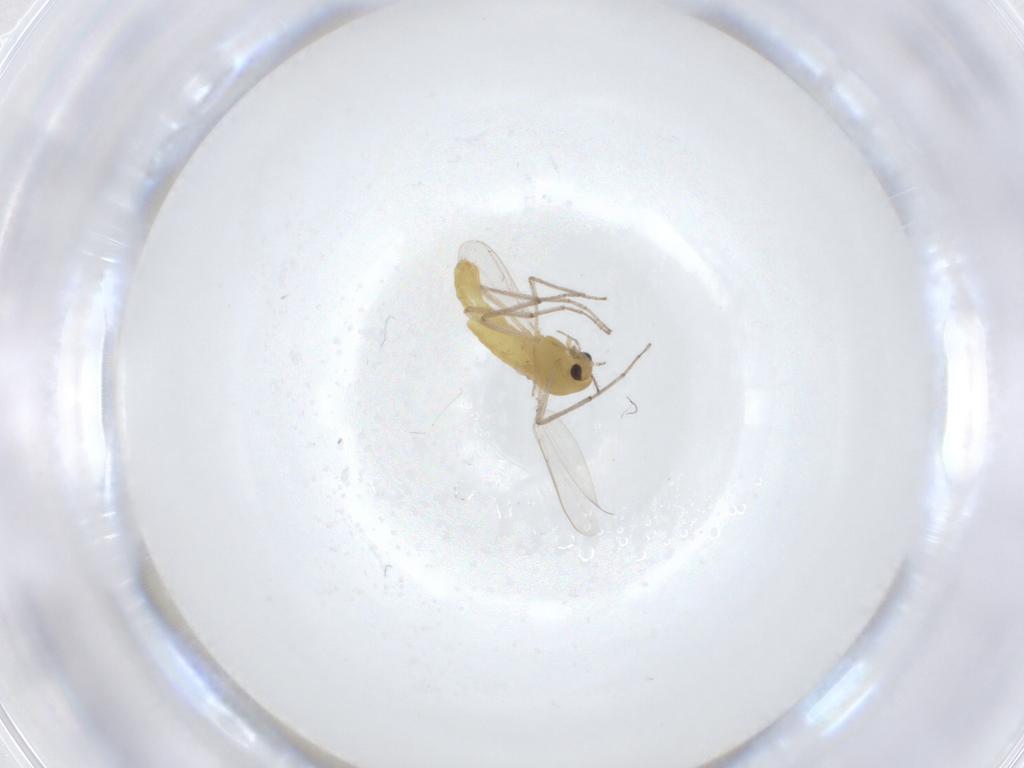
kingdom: Animalia
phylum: Arthropoda
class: Insecta
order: Diptera
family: Chironomidae
